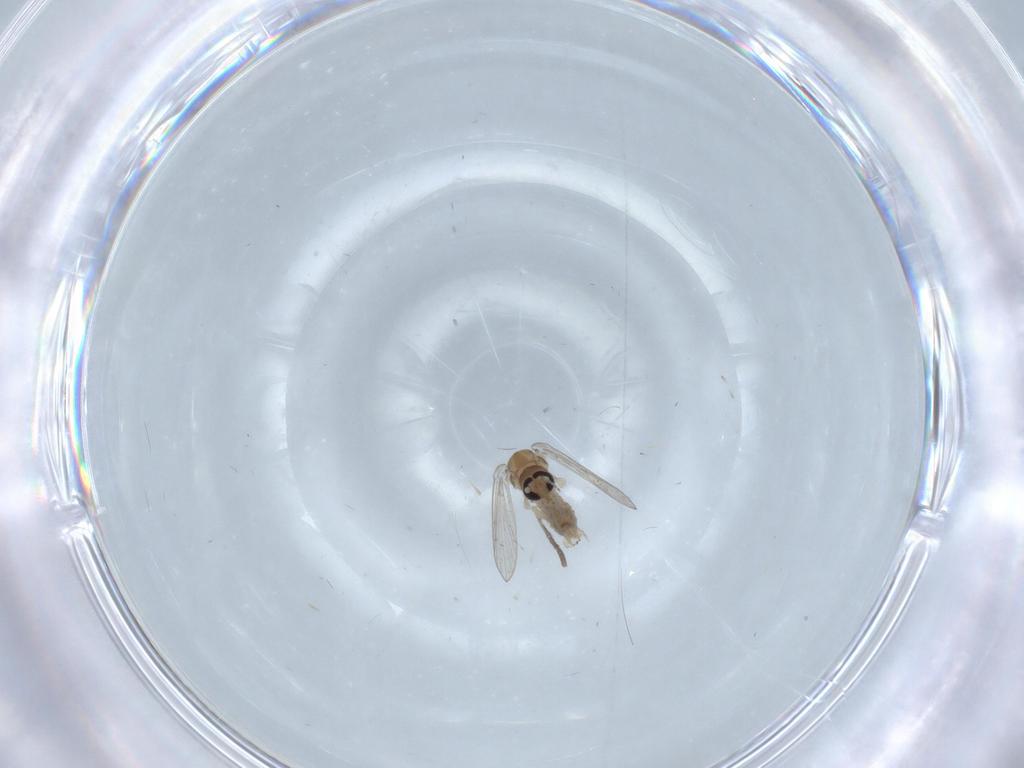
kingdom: Animalia
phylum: Arthropoda
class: Insecta
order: Diptera
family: Psychodidae
